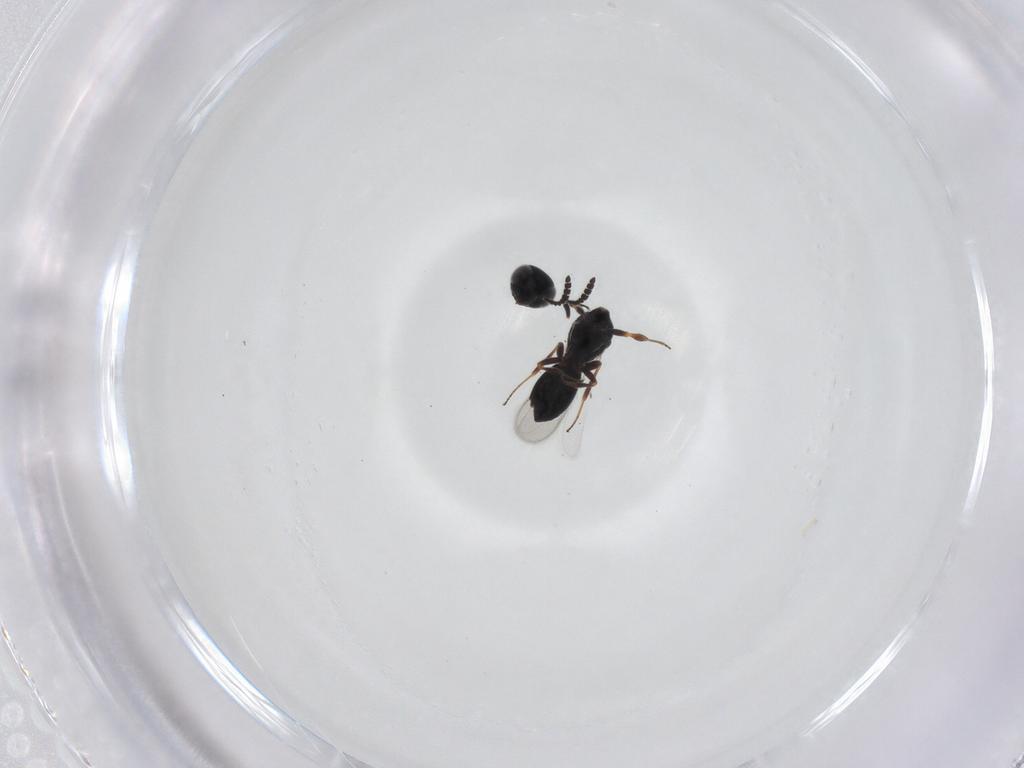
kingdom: Animalia
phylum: Arthropoda
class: Insecta
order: Hymenoptera
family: Scelionidae
